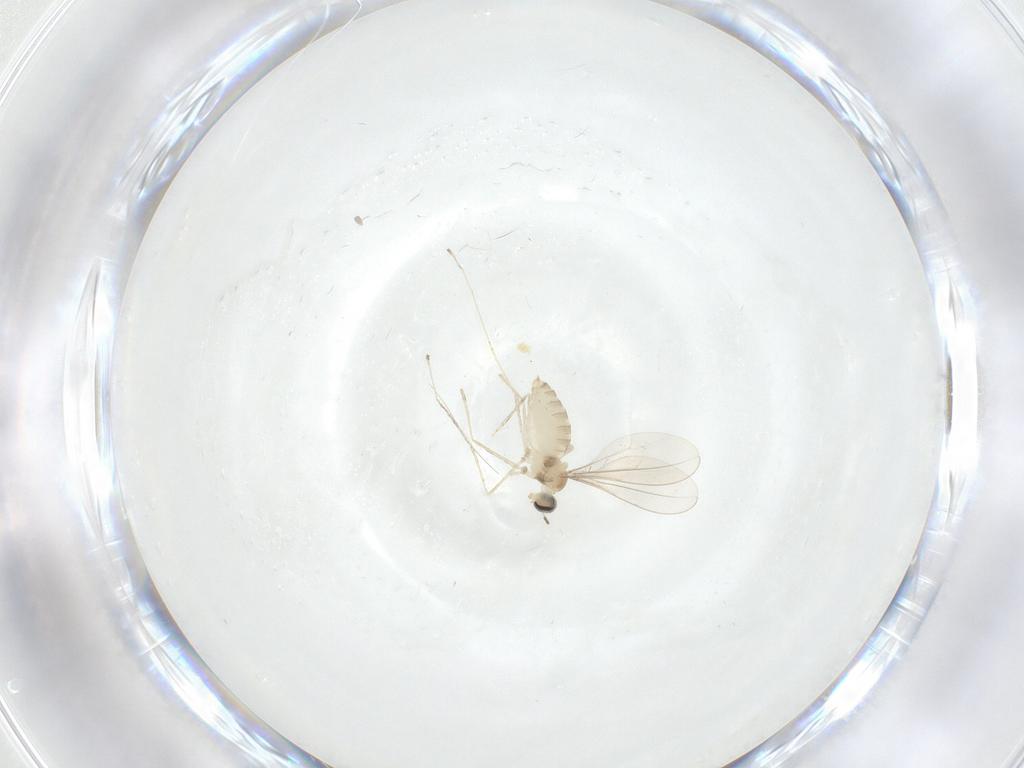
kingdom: Animalia
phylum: Arthropoda
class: Insecta
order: Diptera
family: Cecidomyiidae
